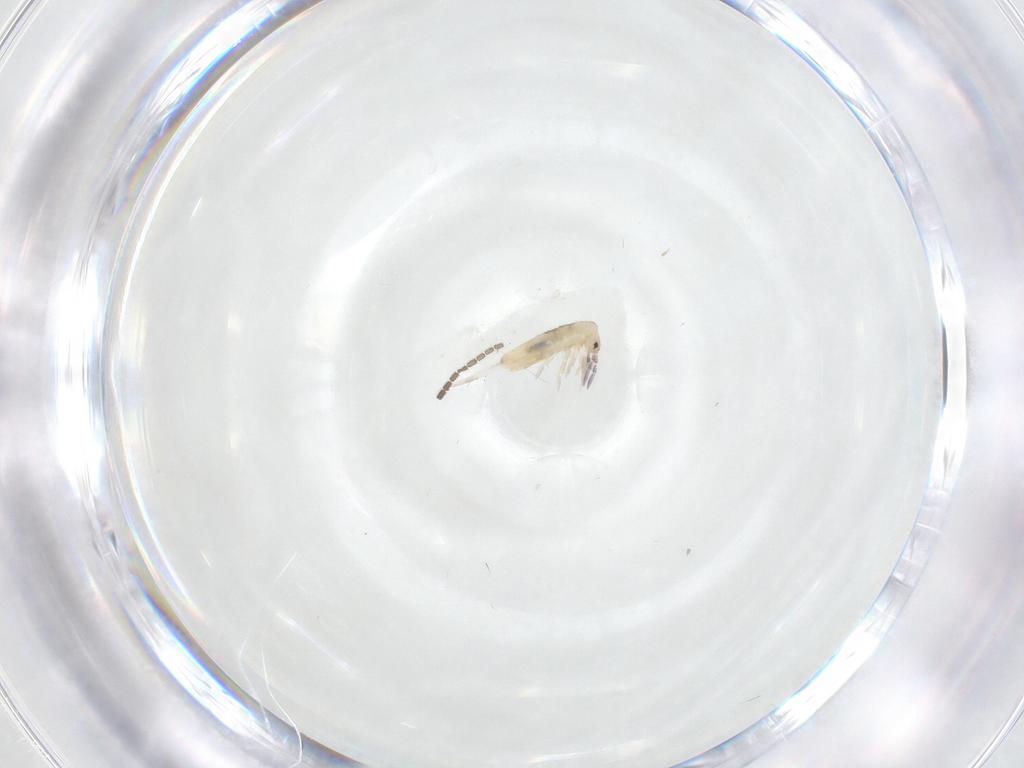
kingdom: Animalia
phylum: Arthropoda
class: Collembola
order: Entomobryomorpha
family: Entomobryidae
